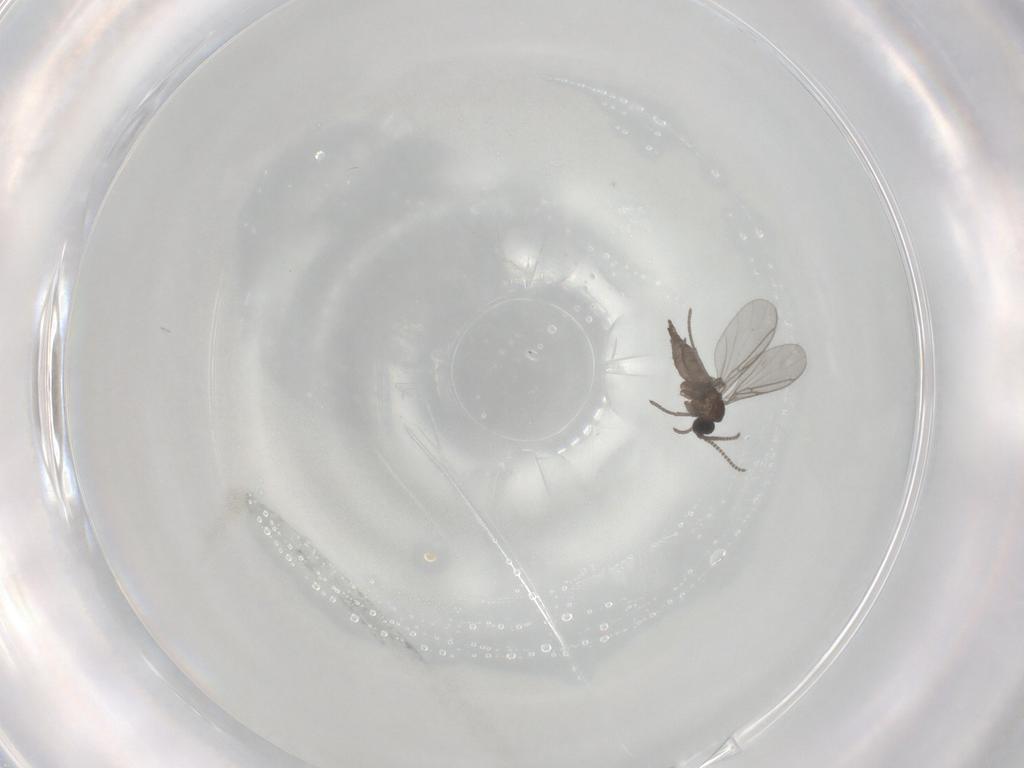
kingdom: Animalia
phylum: Arthropoda
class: Insecta
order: Diptera
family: Chironomidae
